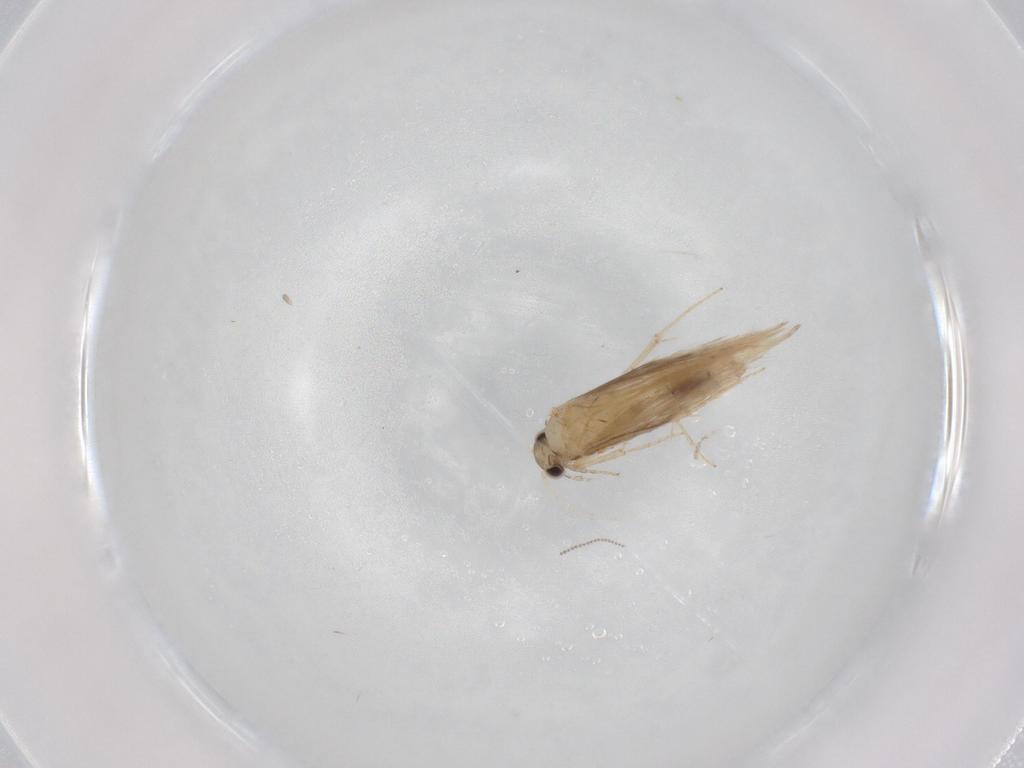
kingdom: Animalia
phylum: Arthropoda
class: Insecta
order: Trichoptera
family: Hydroptilidae
